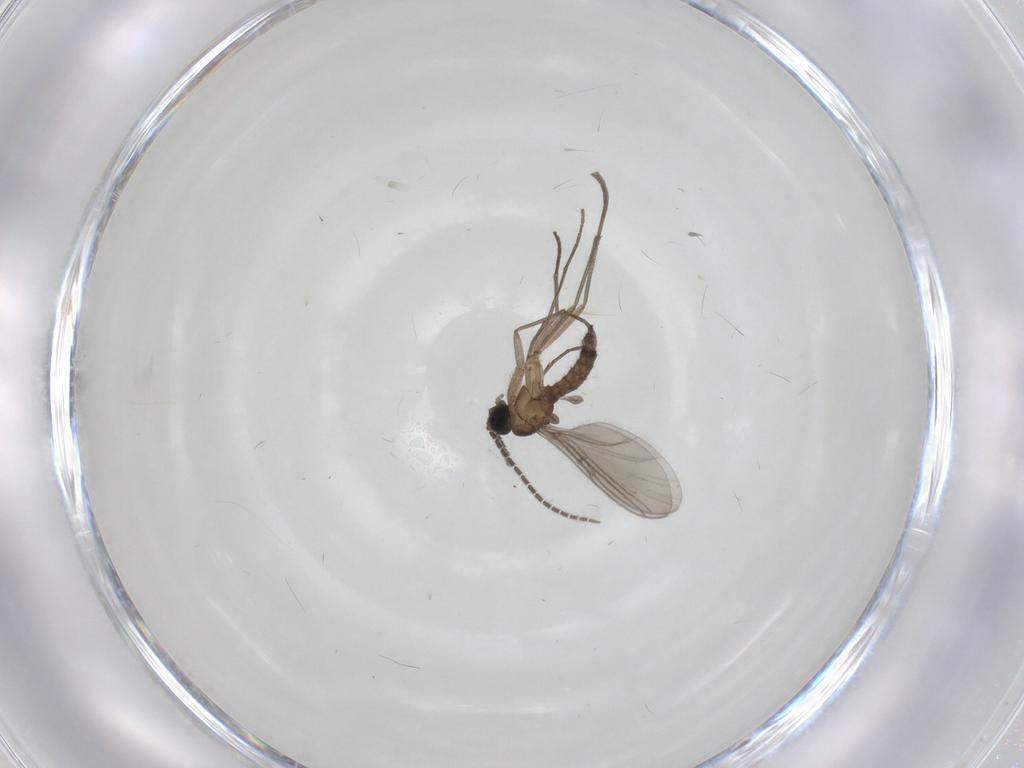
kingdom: Animalia
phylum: Arthropoda
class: Insecta
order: Diptera
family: Sciaridae
